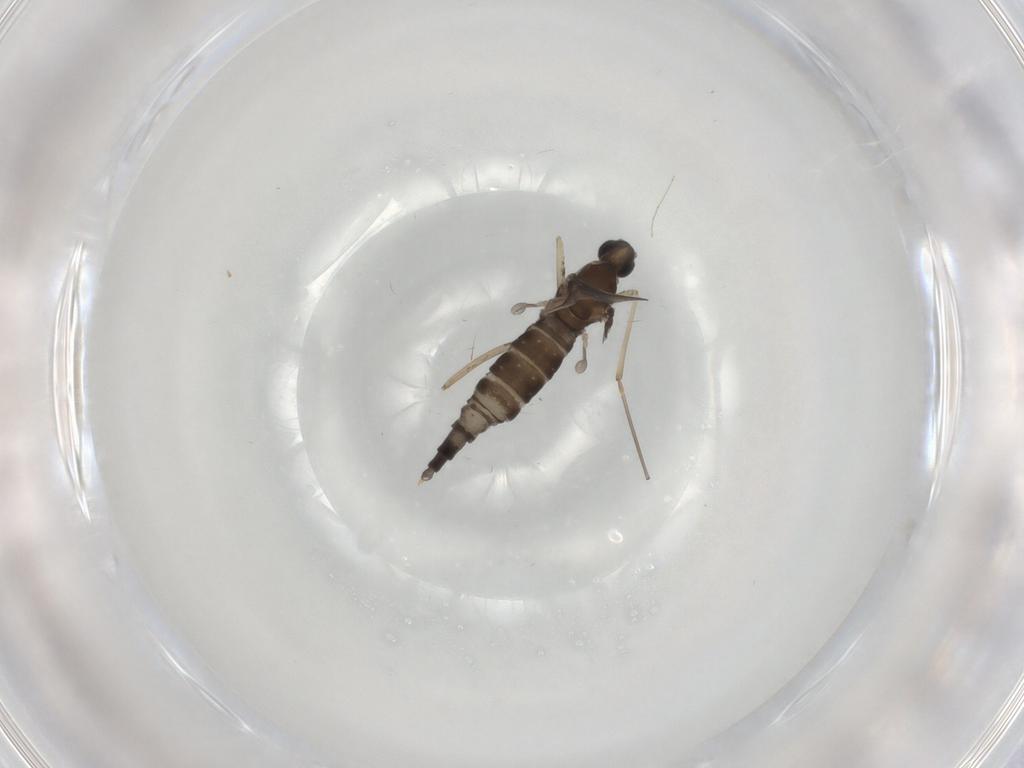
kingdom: Animalia
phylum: Arthropoda
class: Insecta
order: Diptera
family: Cecidomyiidae
